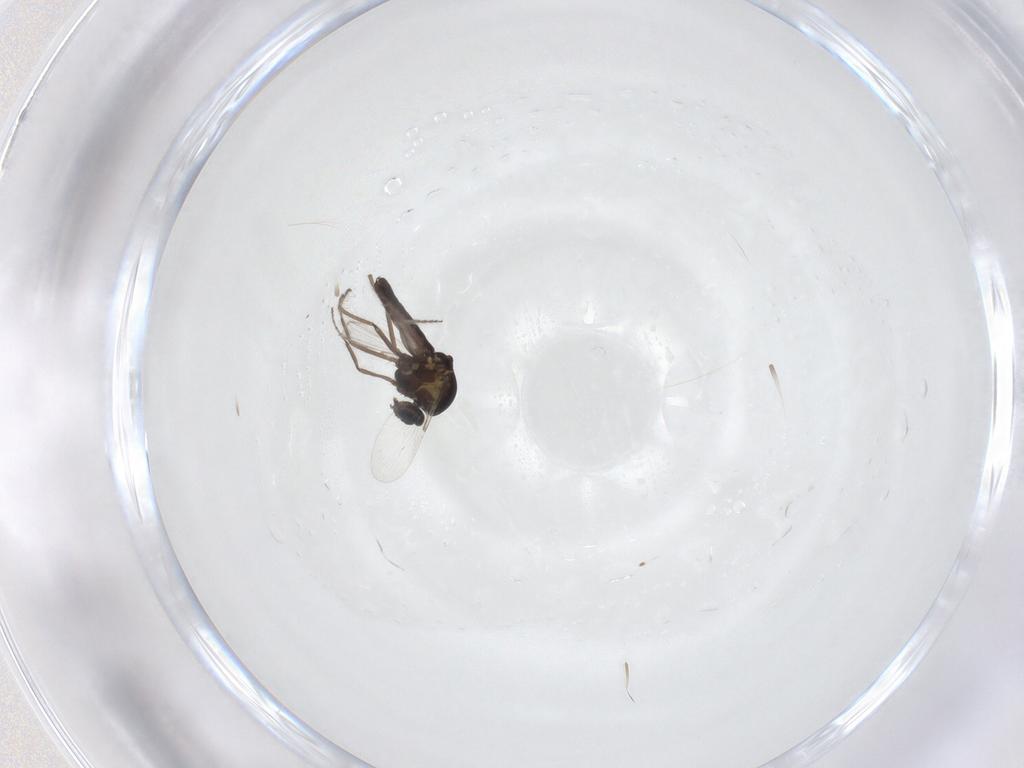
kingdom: Animalia
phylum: Arthropoda
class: Insecta
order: Diptera
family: Ceratopogonidae
